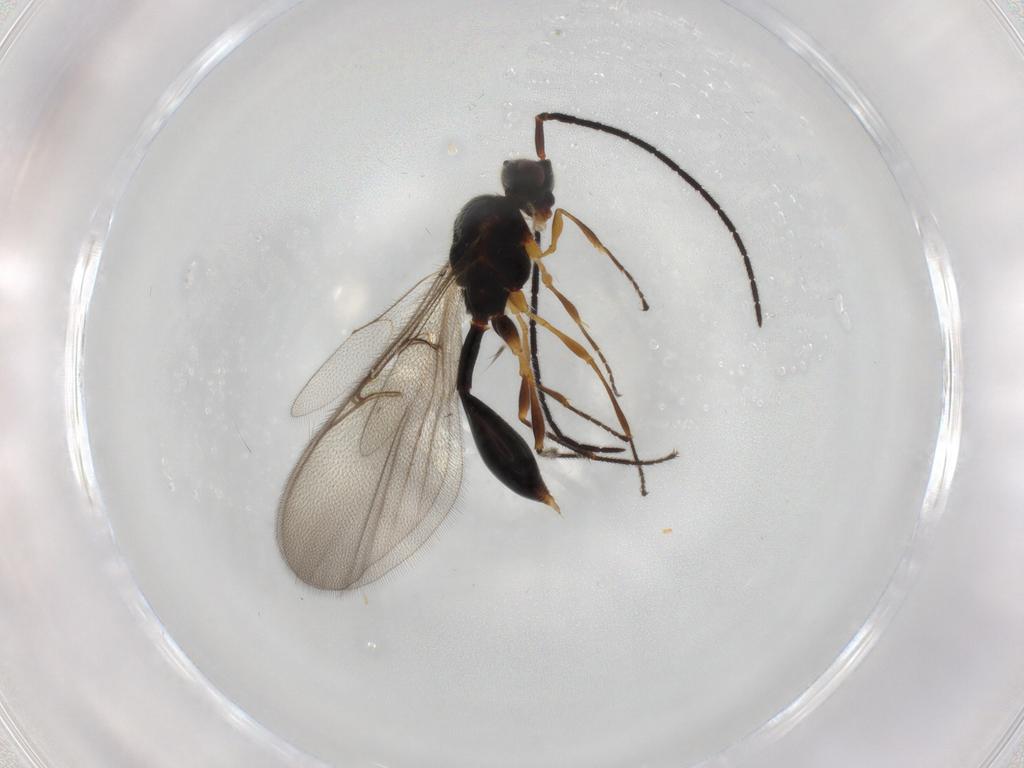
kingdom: Animalia
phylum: Arthropoda
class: Insecta
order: Hymenoptera
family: Diapriidae
